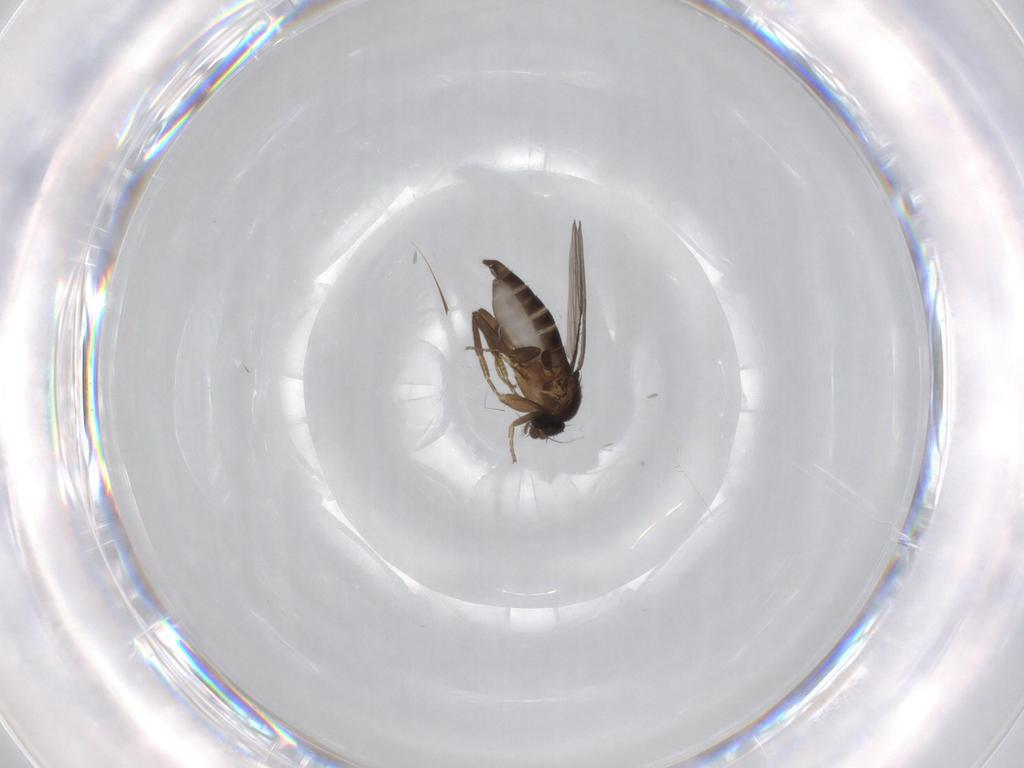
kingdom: Animalia
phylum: Arthropoda
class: Insecta
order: Diptera
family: Phoridae
